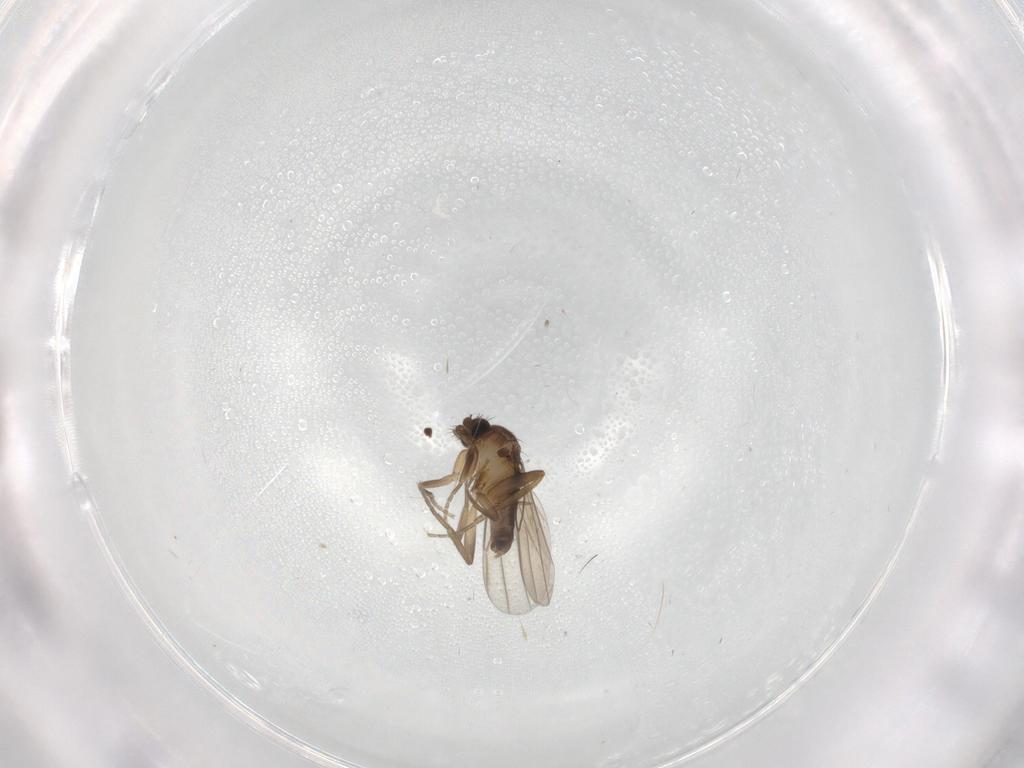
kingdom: Animalia
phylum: Arthropoda
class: Insecta
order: Diptera
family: Phoridae
